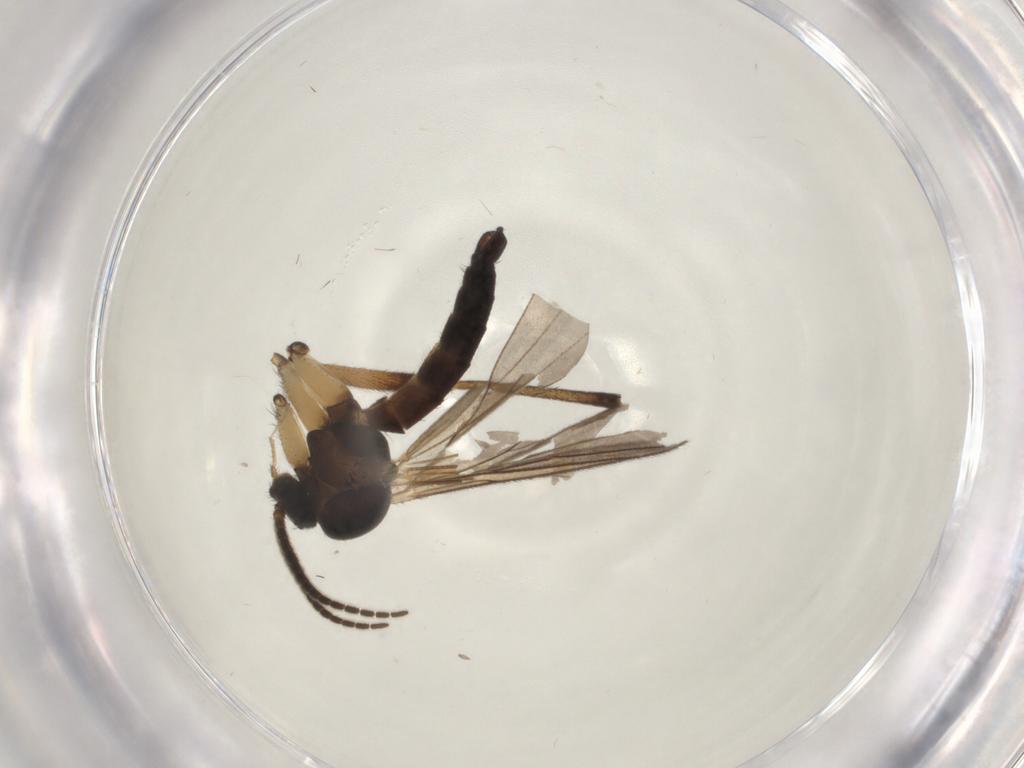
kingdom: Animalia
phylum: Arthropoda
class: Insecta
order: Diptera
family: Mycetophilidae
